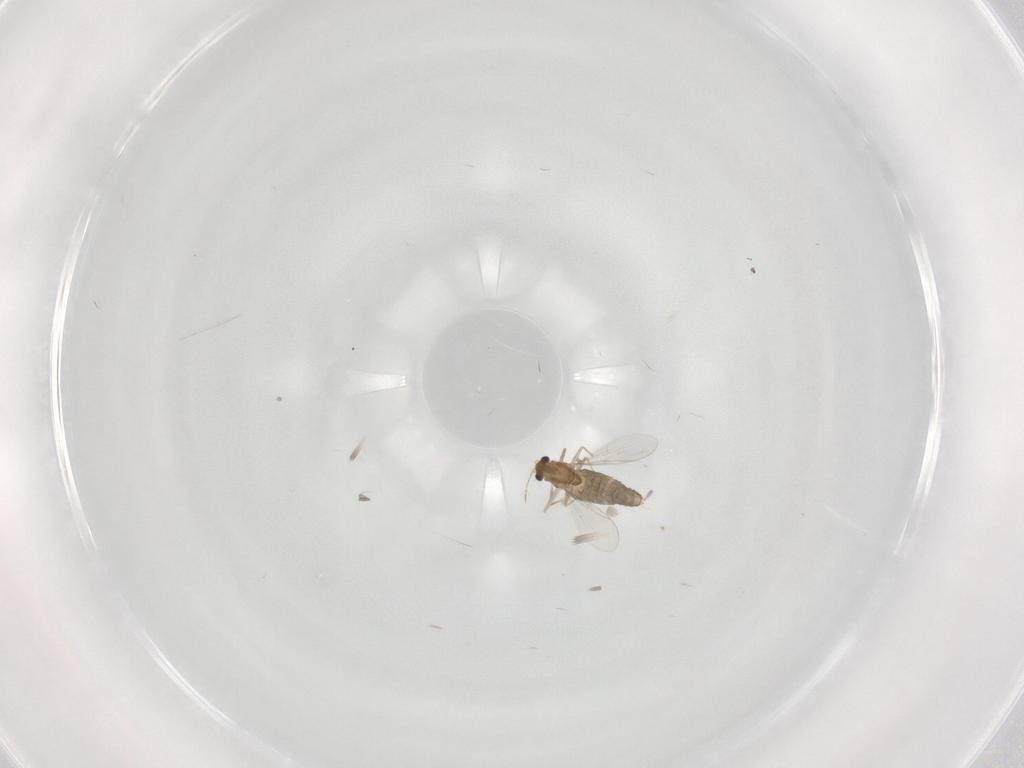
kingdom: Animalia
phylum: Arthropoda
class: Insecta
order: Diptera
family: Chironomidae
